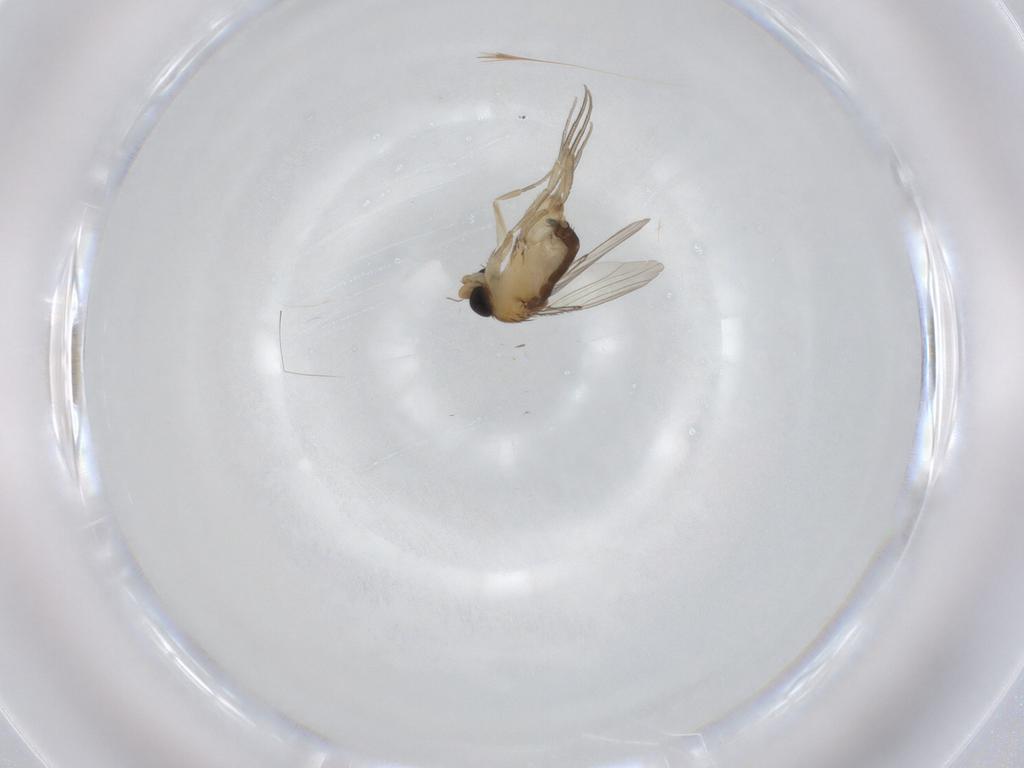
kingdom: Animalia
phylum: Arthropoda
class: Insecta
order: Diptera
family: Phoridae
